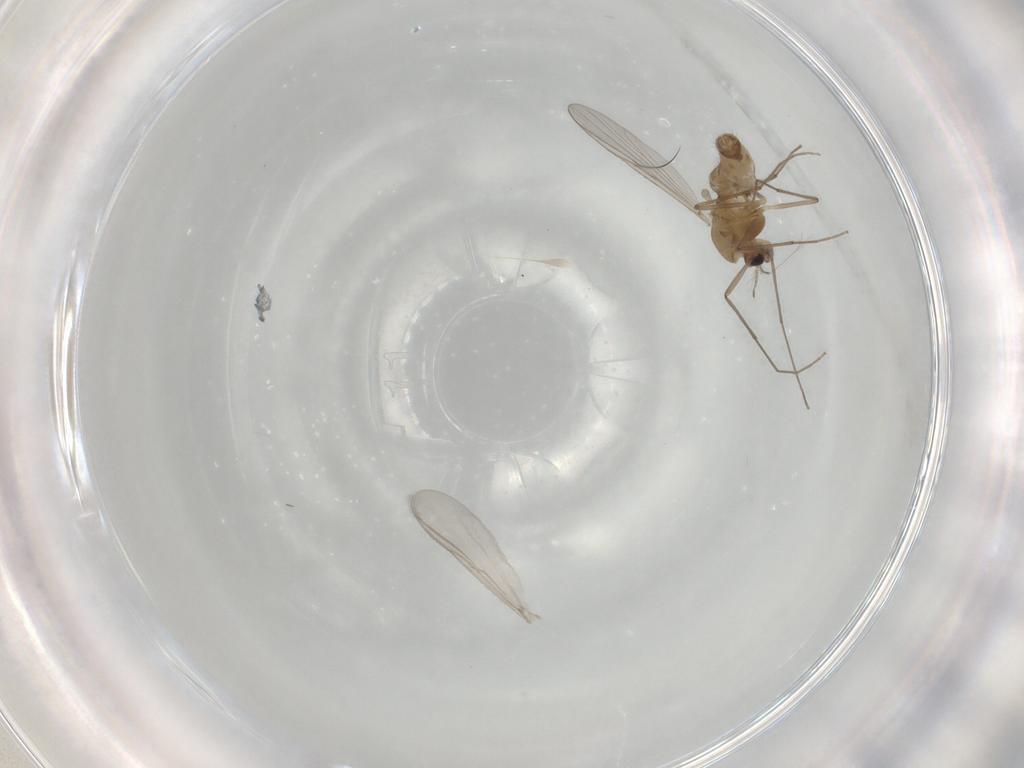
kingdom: Animalia
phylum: Arthropoda
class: Insecta
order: Diptera
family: Chironomidae
